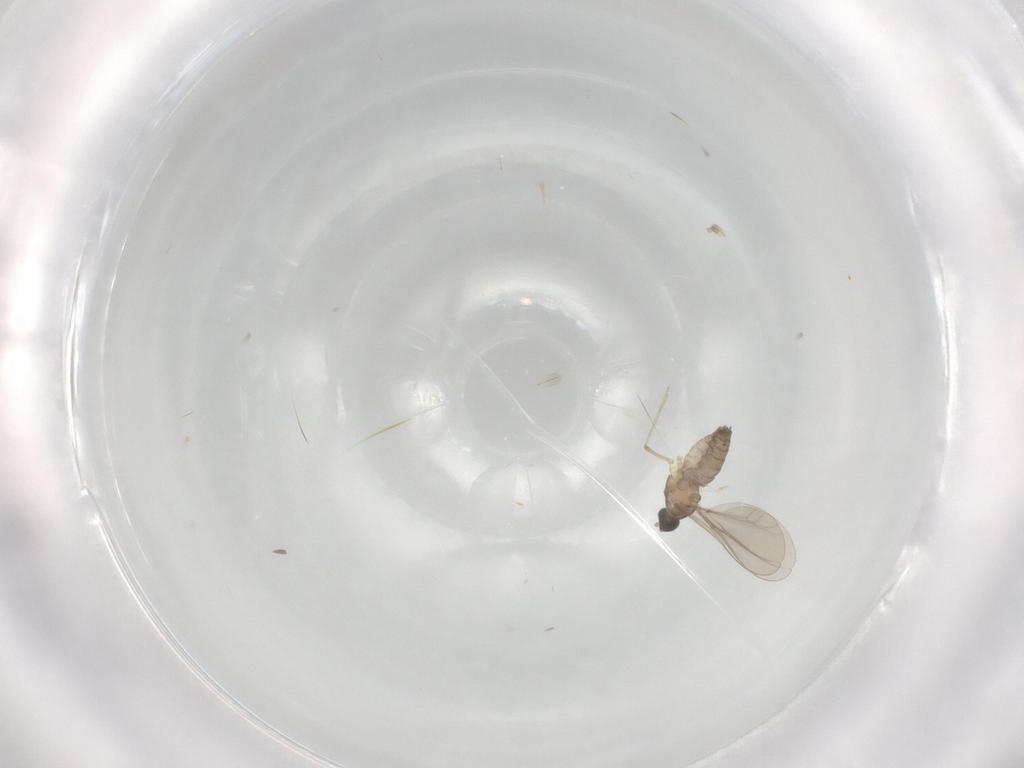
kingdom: Animalia
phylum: Arthropoda
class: Insecta
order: Diptera
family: Cecidomyiidae
